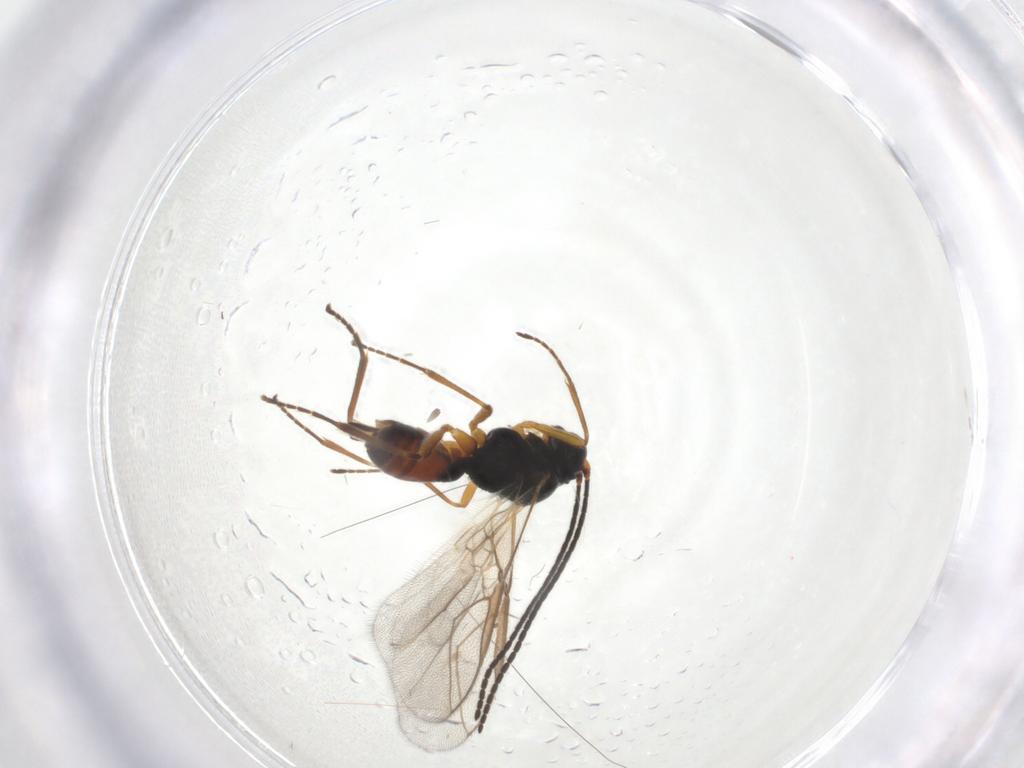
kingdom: Animalia
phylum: Arthropoda
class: Insecta
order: Hymenoptera
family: Braconidae
